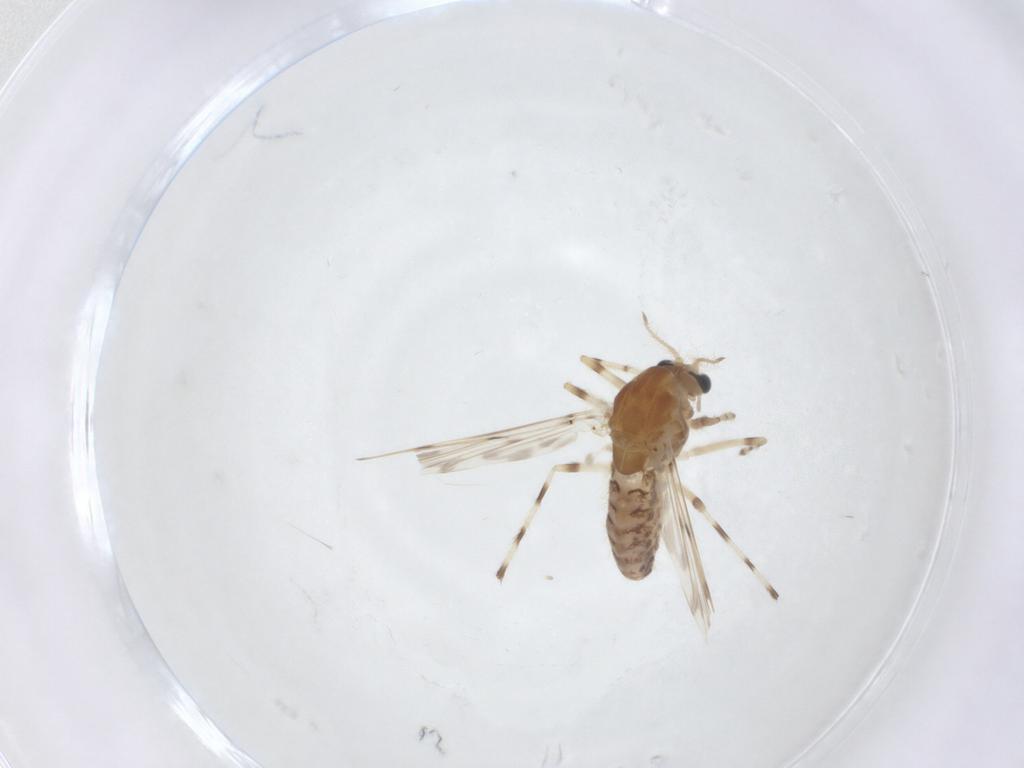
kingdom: Animalia
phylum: Arthropoda
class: Insecta
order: Diptera
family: Chironomidae
